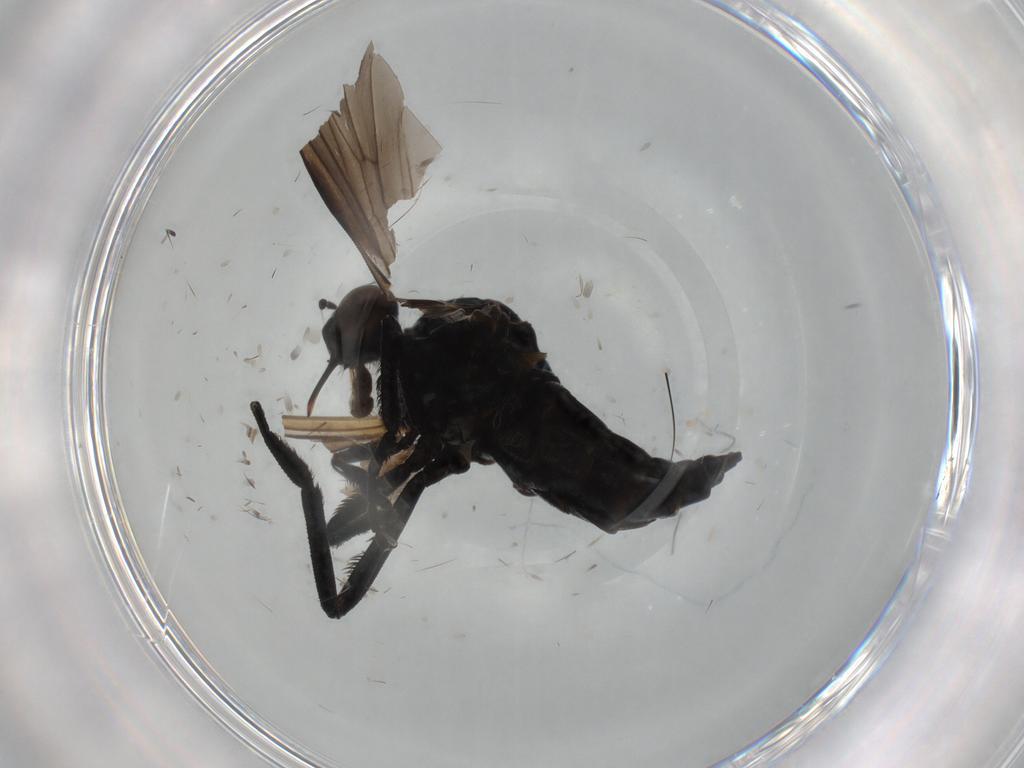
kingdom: Animalia
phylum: Arthropoda
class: Insecta
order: Diptera
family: Empididae
